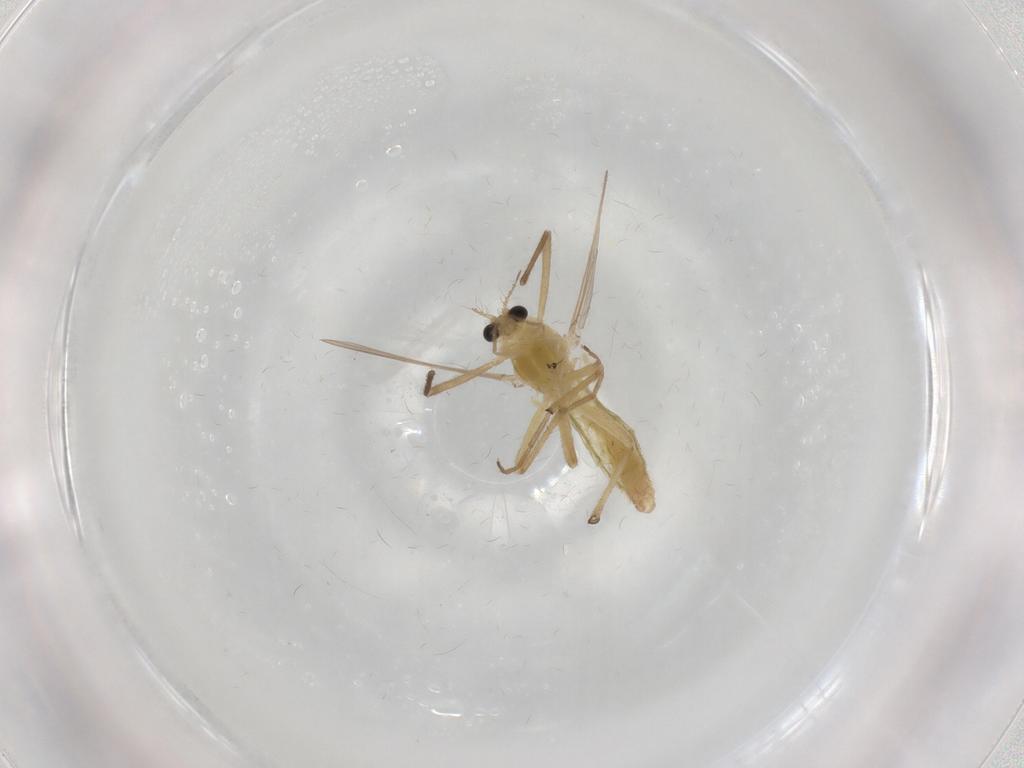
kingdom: Animalia
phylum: Arthropoda
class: Insecta
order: Diptera
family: Chironomidae
